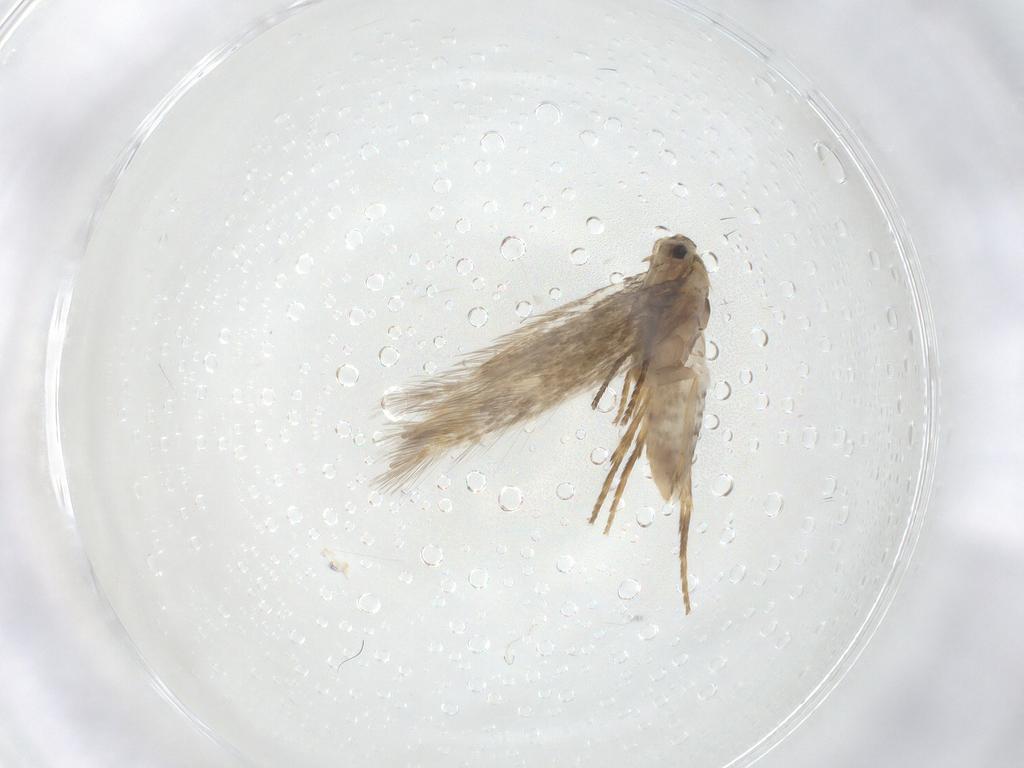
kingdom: Animalia
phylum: Arthropoda
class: Insecta
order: Lepidoptera
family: Nepticulidae
